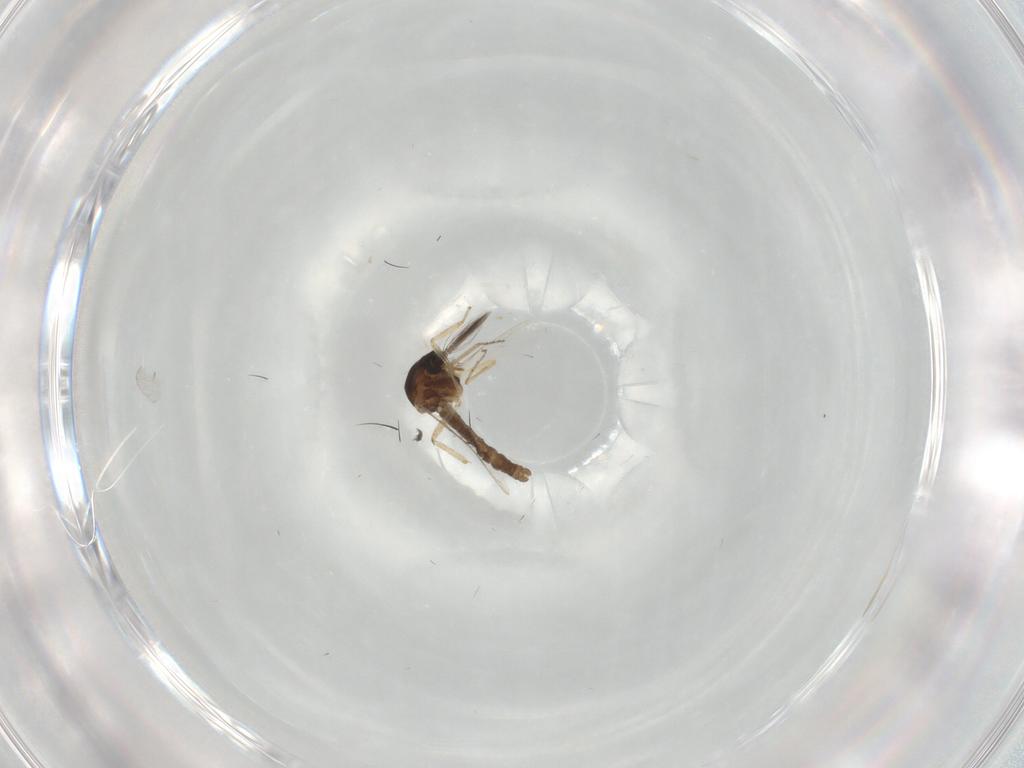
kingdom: Animalia
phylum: Arthropoda
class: Insecta
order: Diptera
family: Ceratopogonidae
